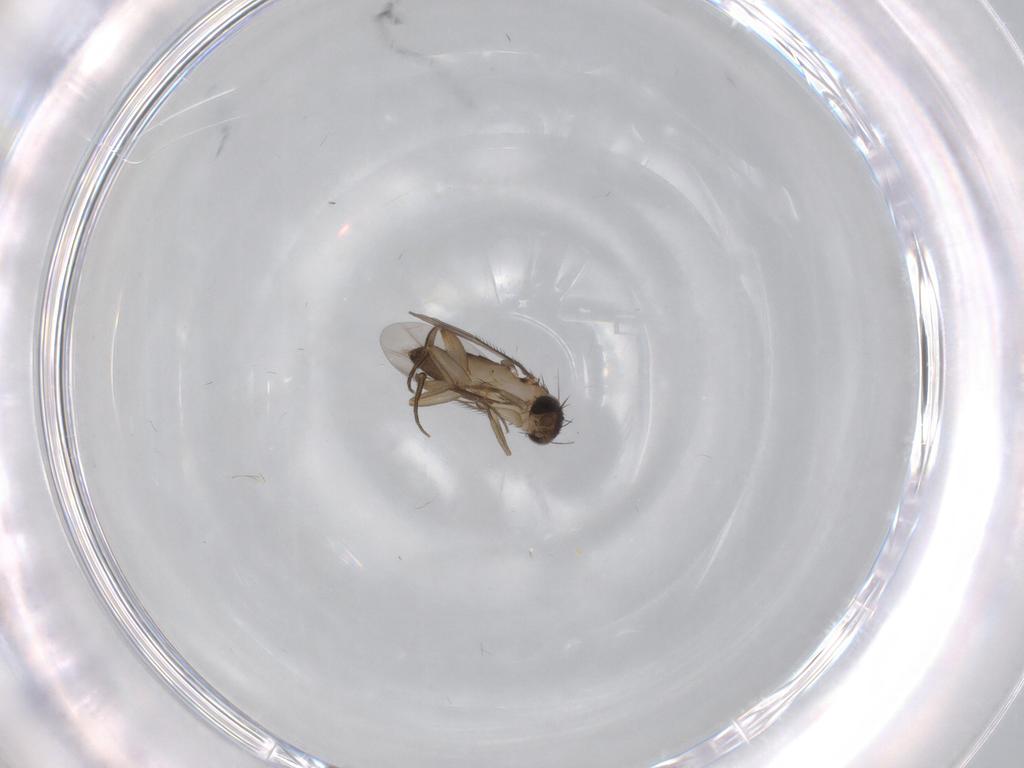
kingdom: Animalia
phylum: Arthropoda
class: Insecta
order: Diptera
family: Phoridae
